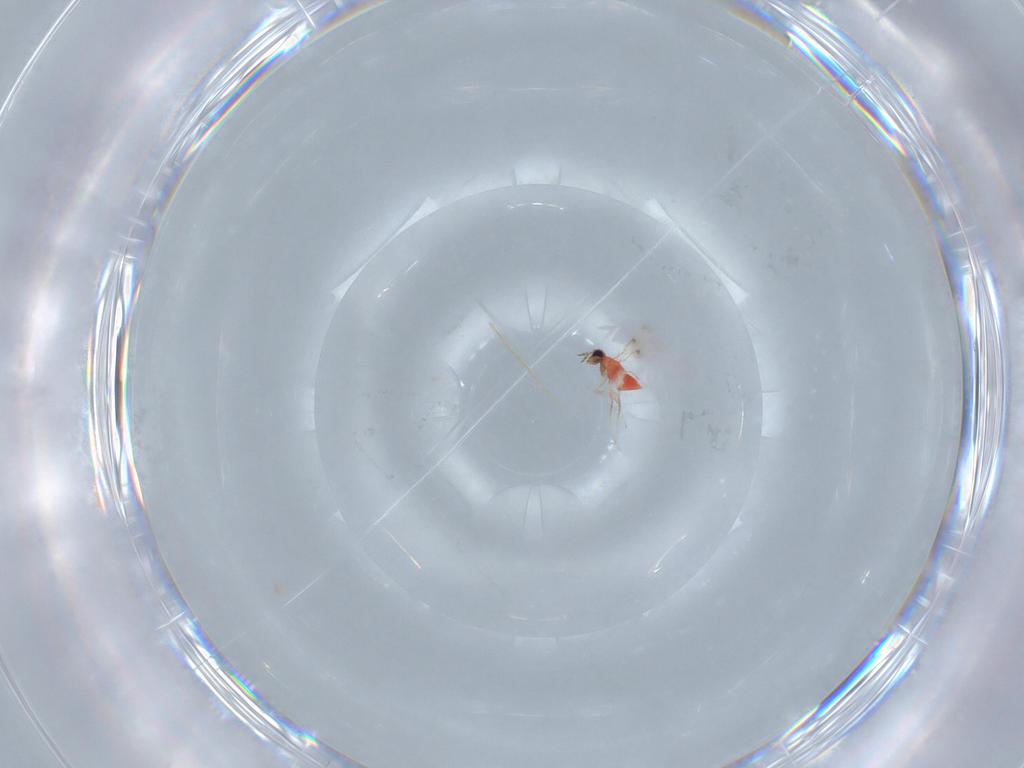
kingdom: Animalia
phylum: Arthropoda
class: Insecta
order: Hymenoptera
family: Trichogrammatidae
